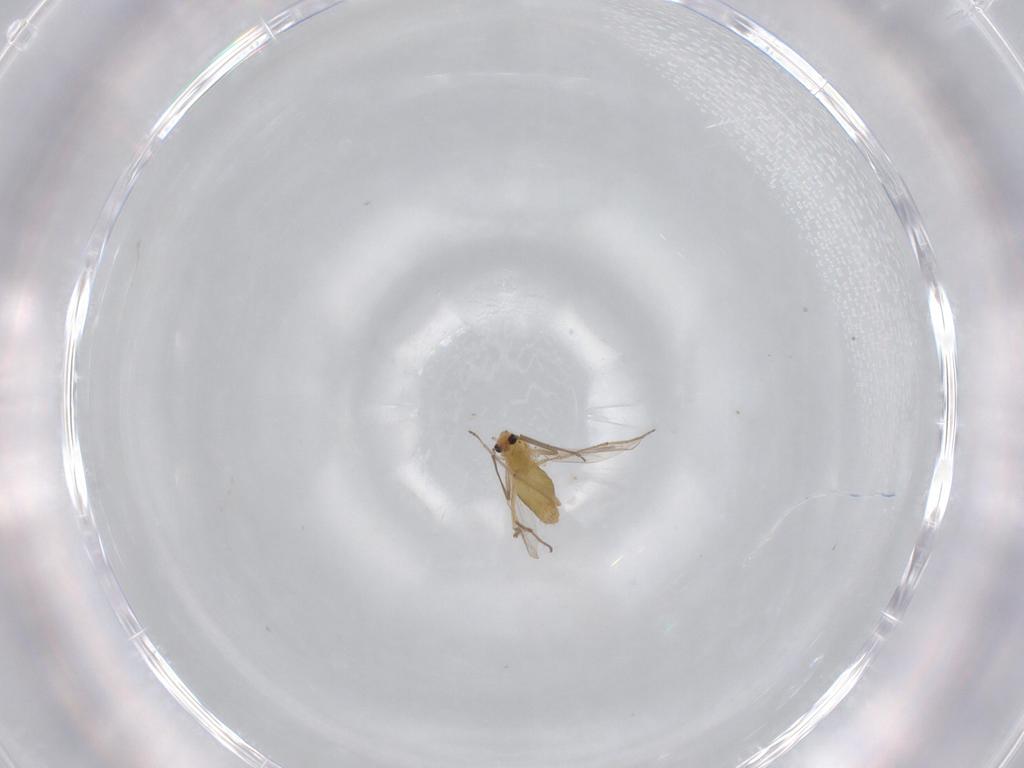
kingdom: Animalia
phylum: Arthropoda
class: Insecta
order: Diptera
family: Chironomidae
